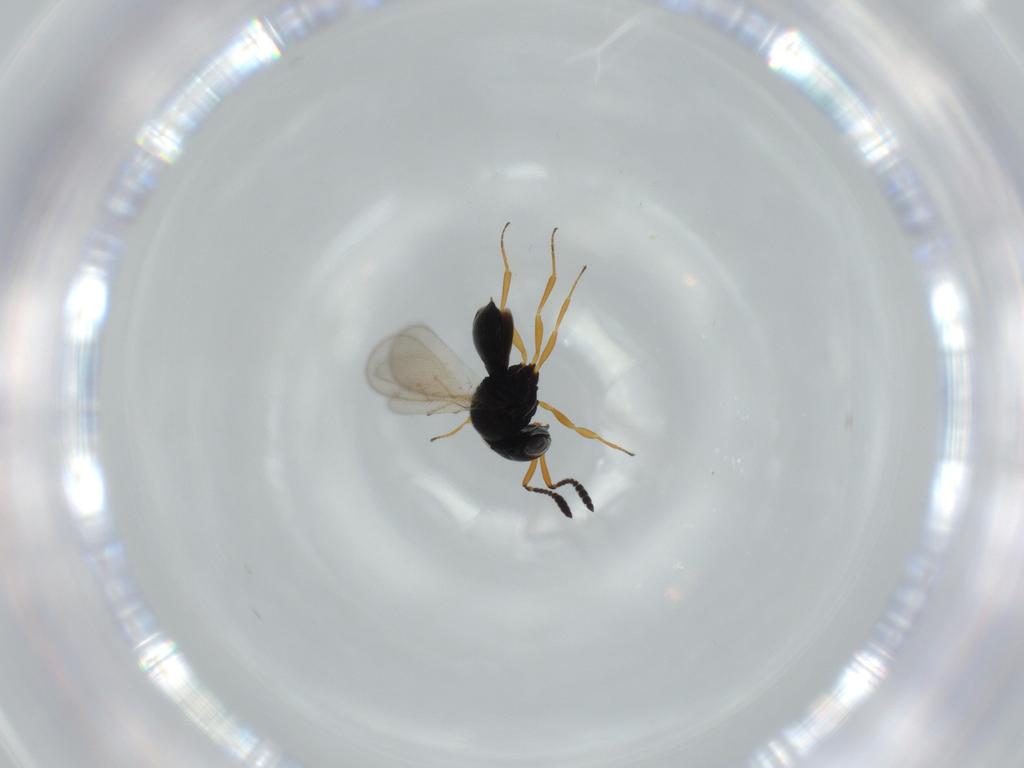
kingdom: Animalia
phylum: Arthropoda
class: Insecta
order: Hymenoptera
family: Scelionidae
